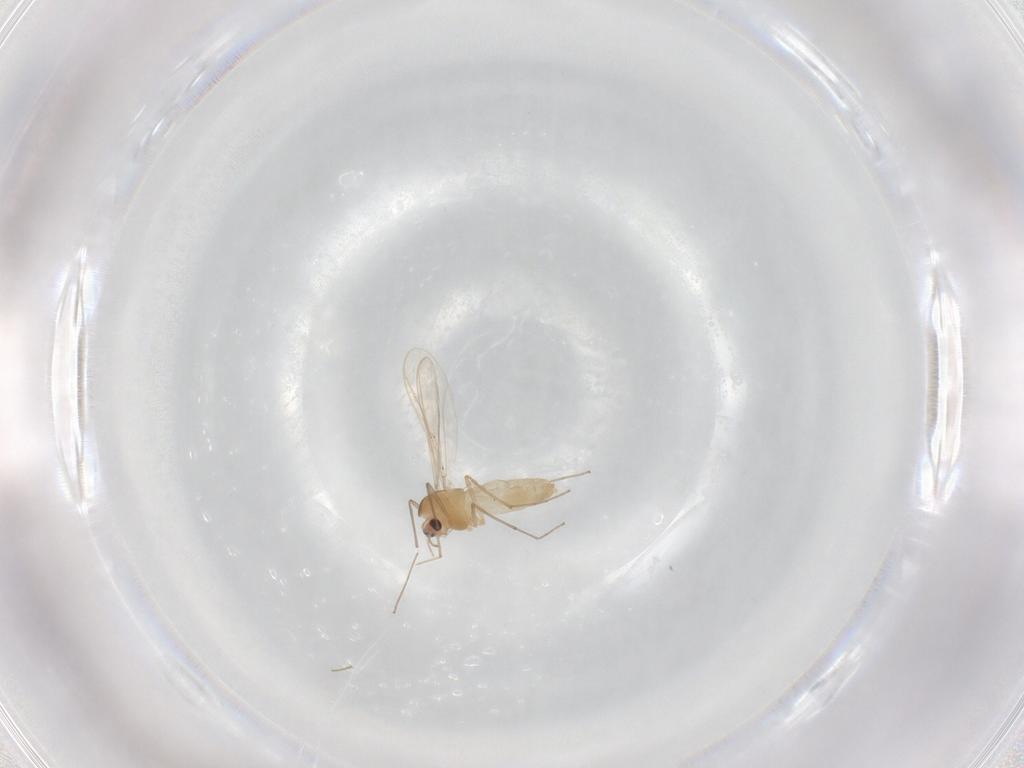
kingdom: Animalia
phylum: Arthropoda
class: Insecta
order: Diptera
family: Chironomidae
